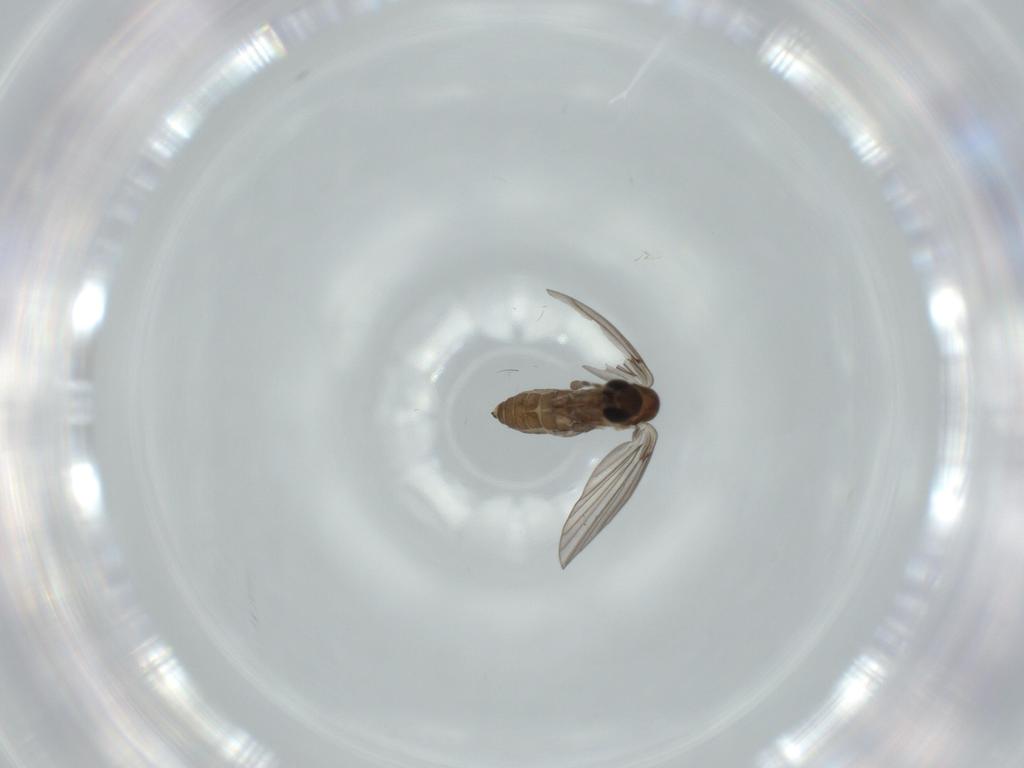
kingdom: Animalia
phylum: Arthropoda
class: Insecta
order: Diptera
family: Psychodidae
